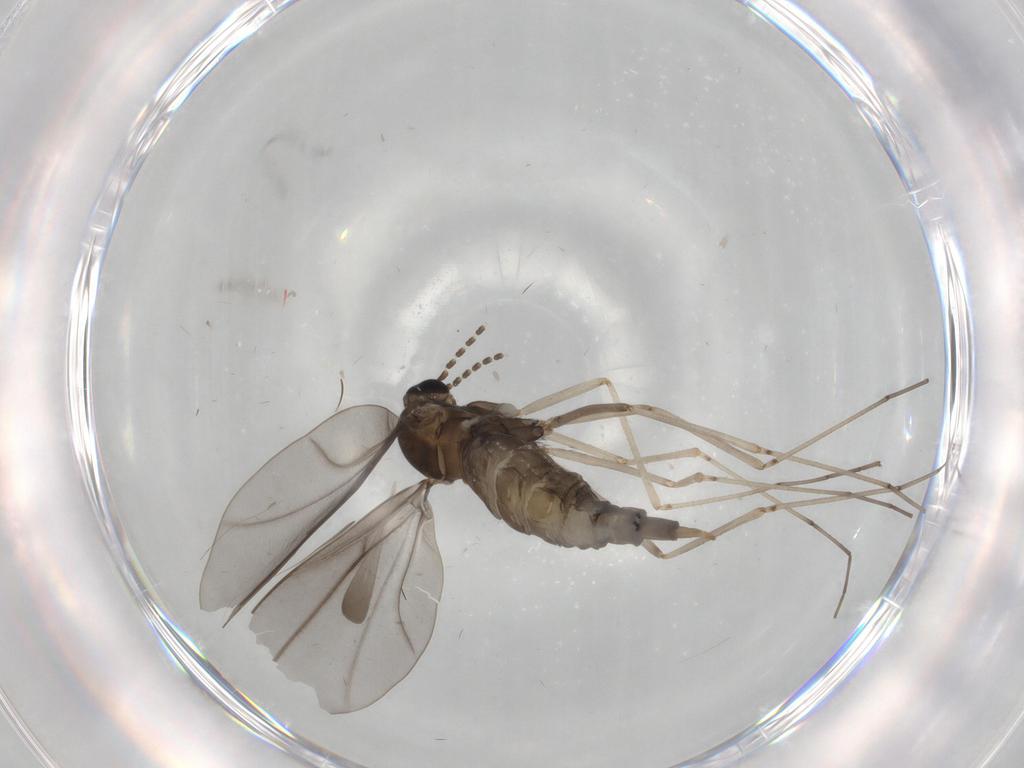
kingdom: Animalia
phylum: Arthropoda
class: Insecta
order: Diptera
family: Cecidomyiidae
